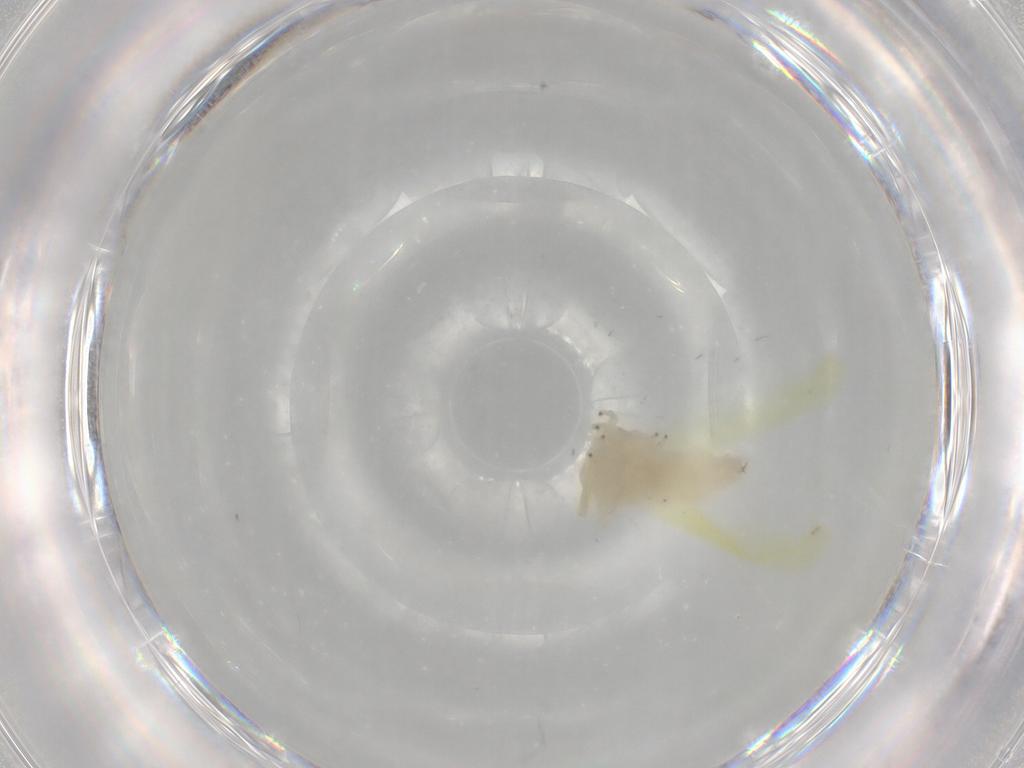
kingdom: Animalia
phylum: Arthropoda
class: Insecta
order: Hemiptera
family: Cicadellidae
